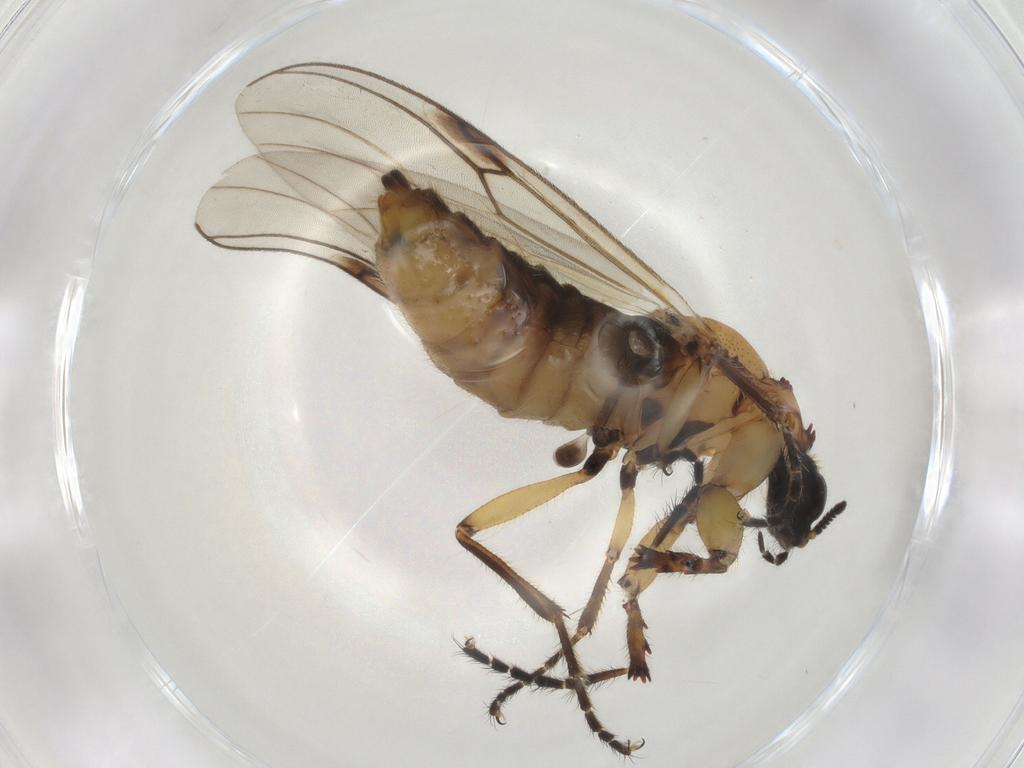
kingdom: Animalia
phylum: Arthropoda
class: Insecta
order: Diptera
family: Bibionidae
